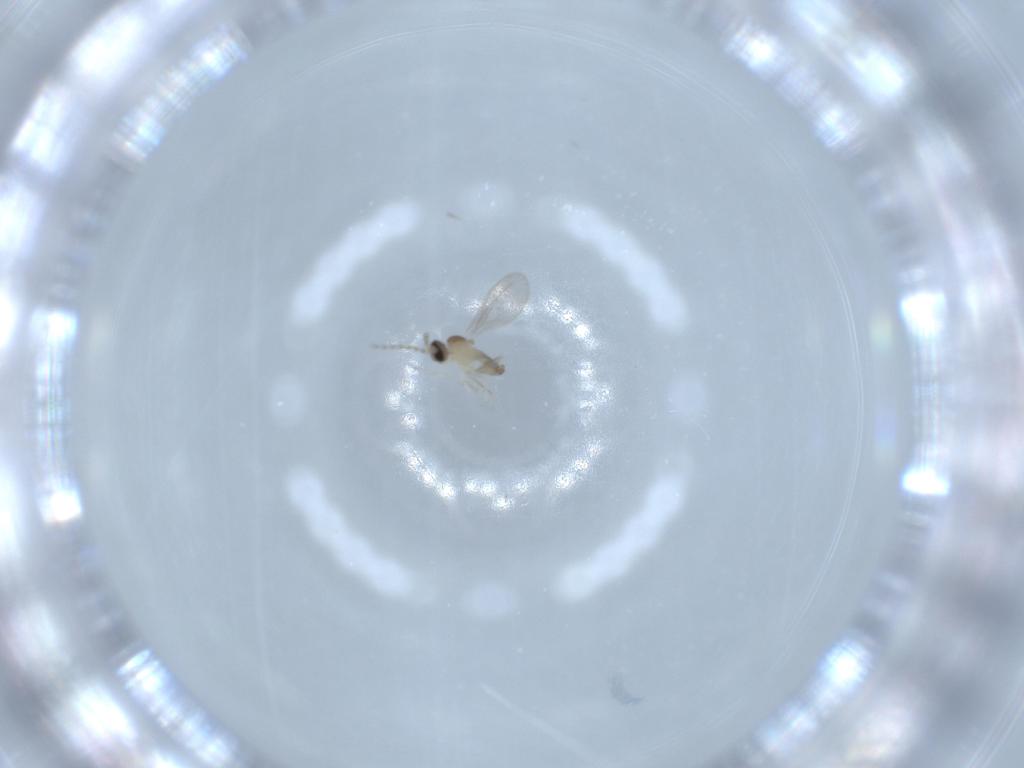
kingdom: Animalia
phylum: Arthropoda
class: Insecta
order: Diptera
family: Cecidomyiidae
